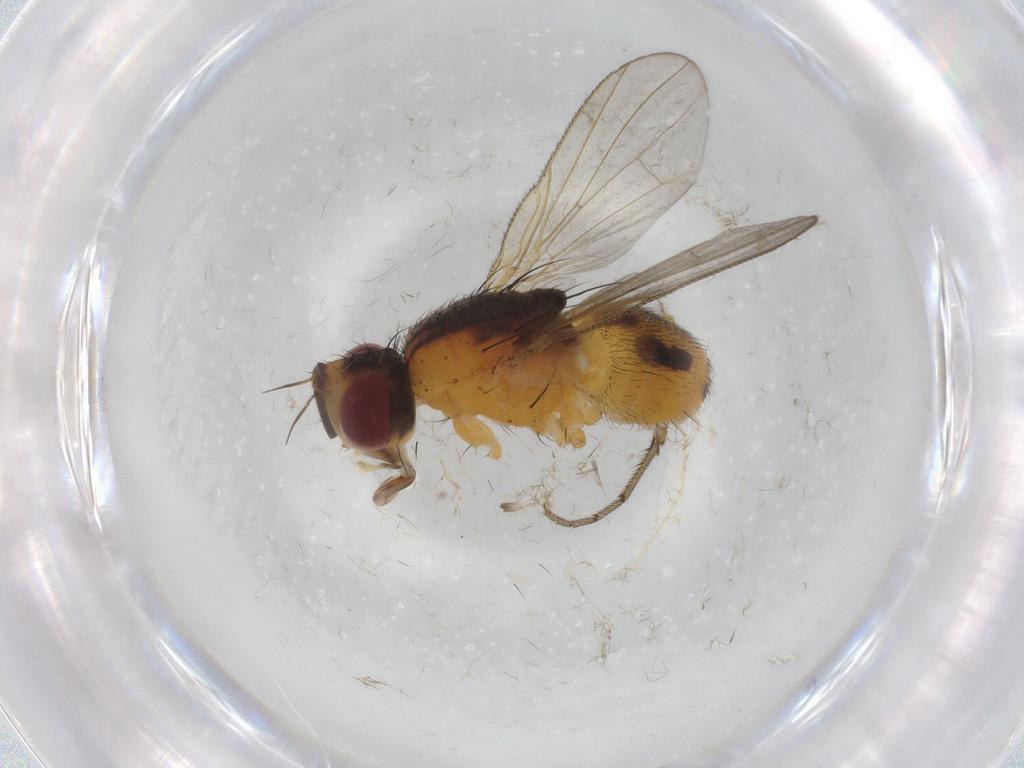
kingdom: Animalia
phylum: Arthropoda
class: Insecta
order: Diptera
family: Muscidae
